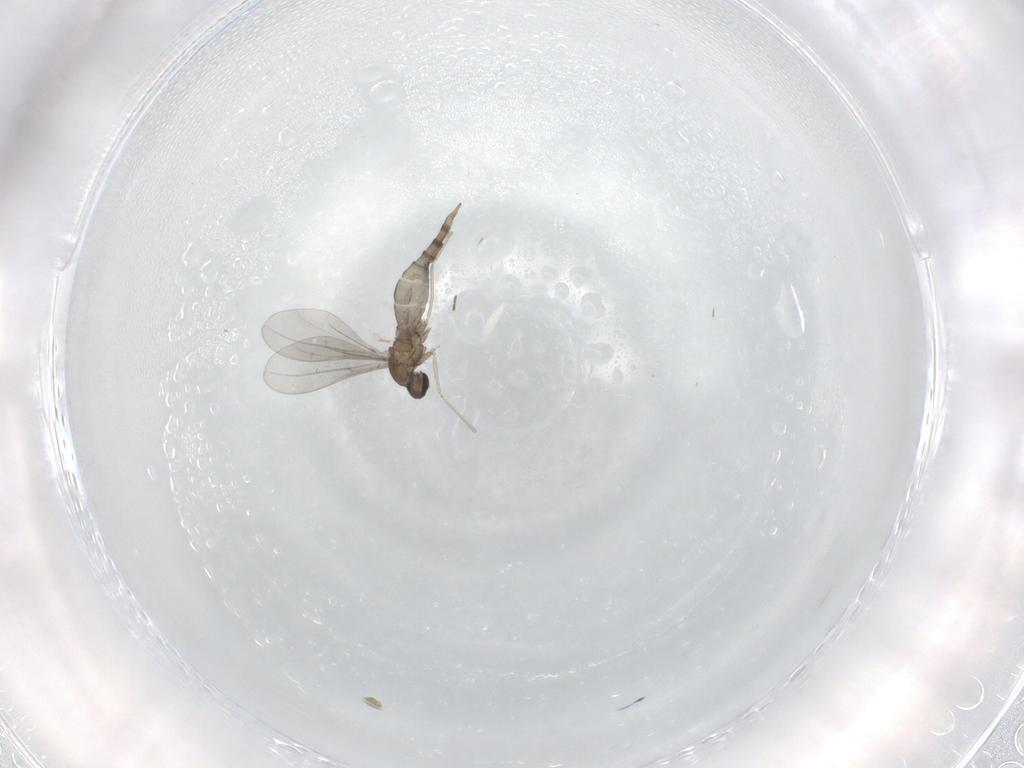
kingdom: Animalia
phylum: Arthropoda
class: Insecta
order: Diptera
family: Cecidomyiidae
